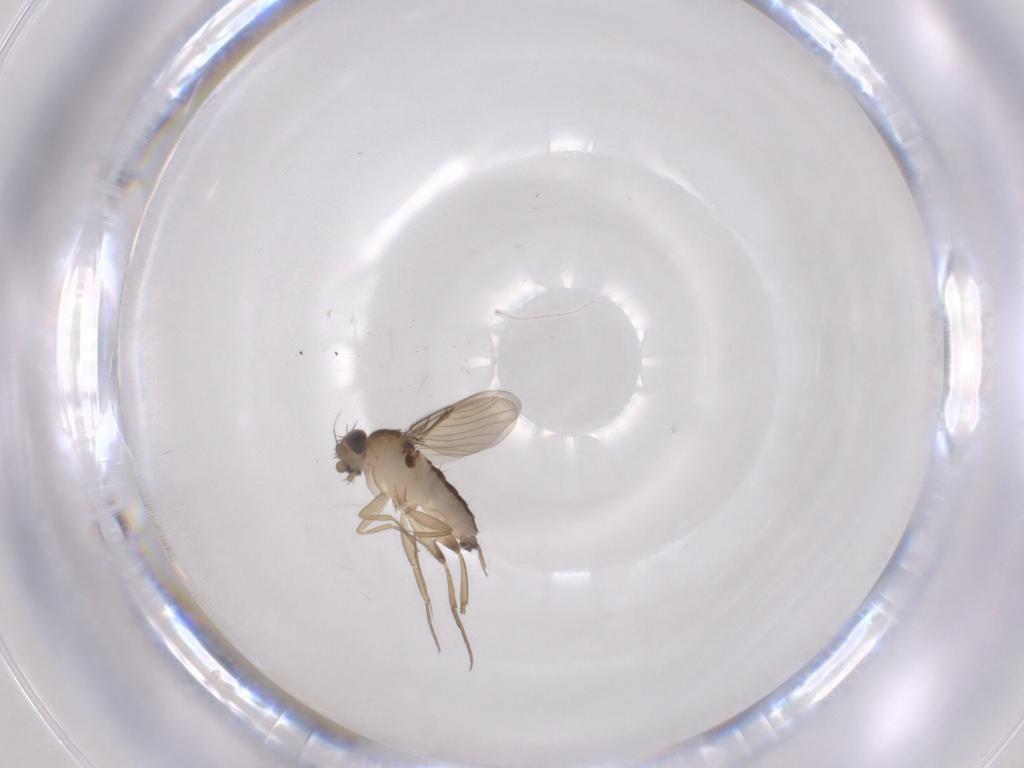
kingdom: Animalia
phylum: Arthropoda
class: Insecta
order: Diptera
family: Phoridae
